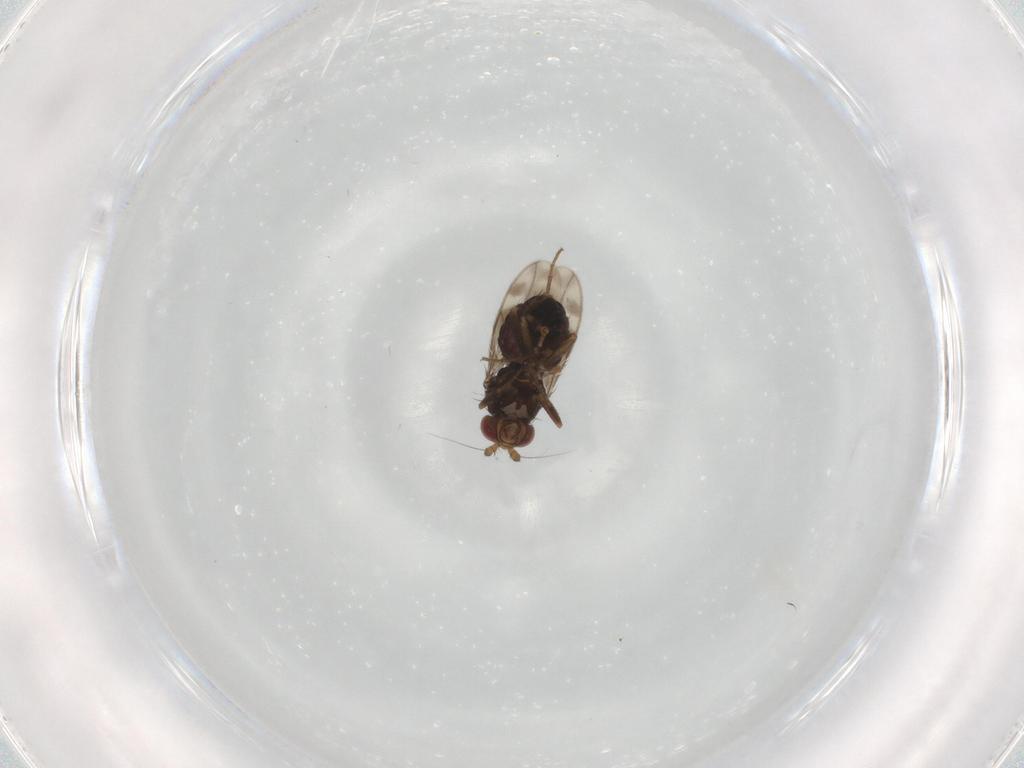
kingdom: Animalia
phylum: Arthropoda
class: Insecta
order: Diptera
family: Sphaeroceridae
